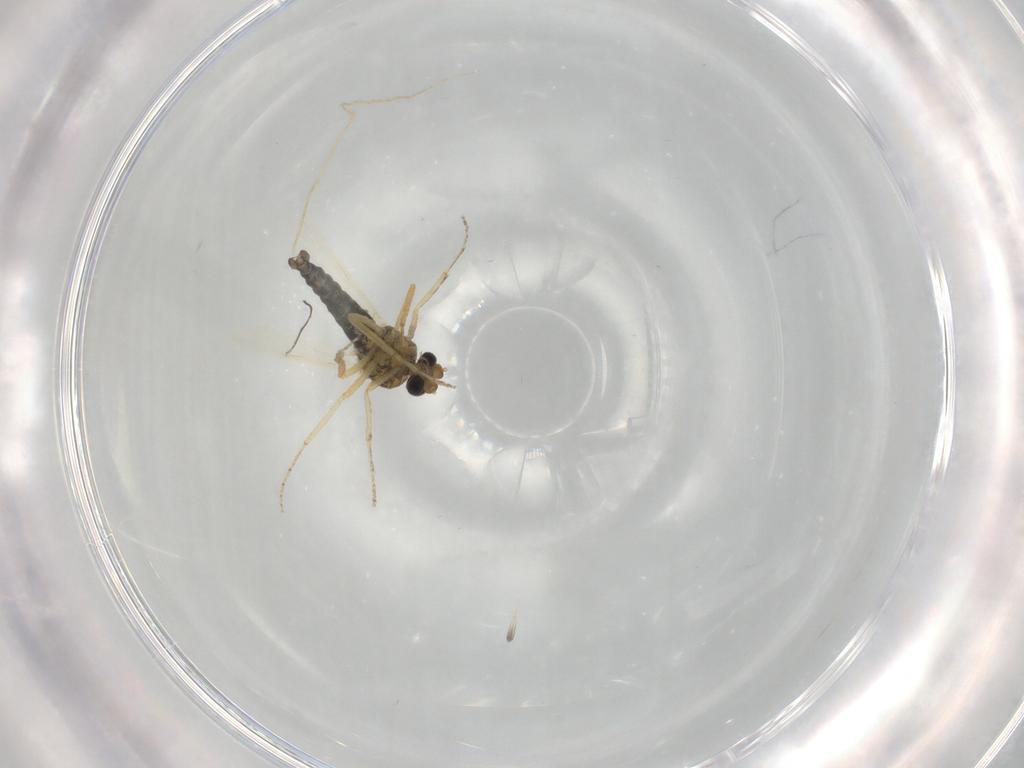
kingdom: Animalia
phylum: Arthropoda
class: Insecta
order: Diptera
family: Ceratopogonidae
